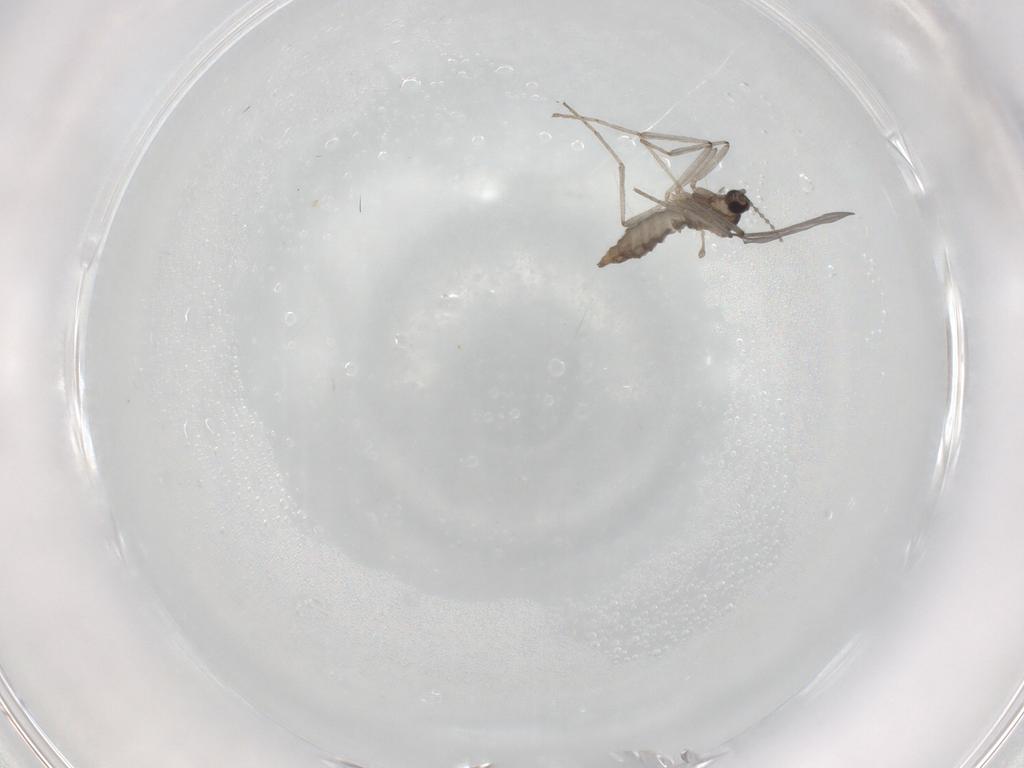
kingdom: Animalia
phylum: Arthropoda
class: Insecta
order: Diptera
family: Cecidomyiidae
